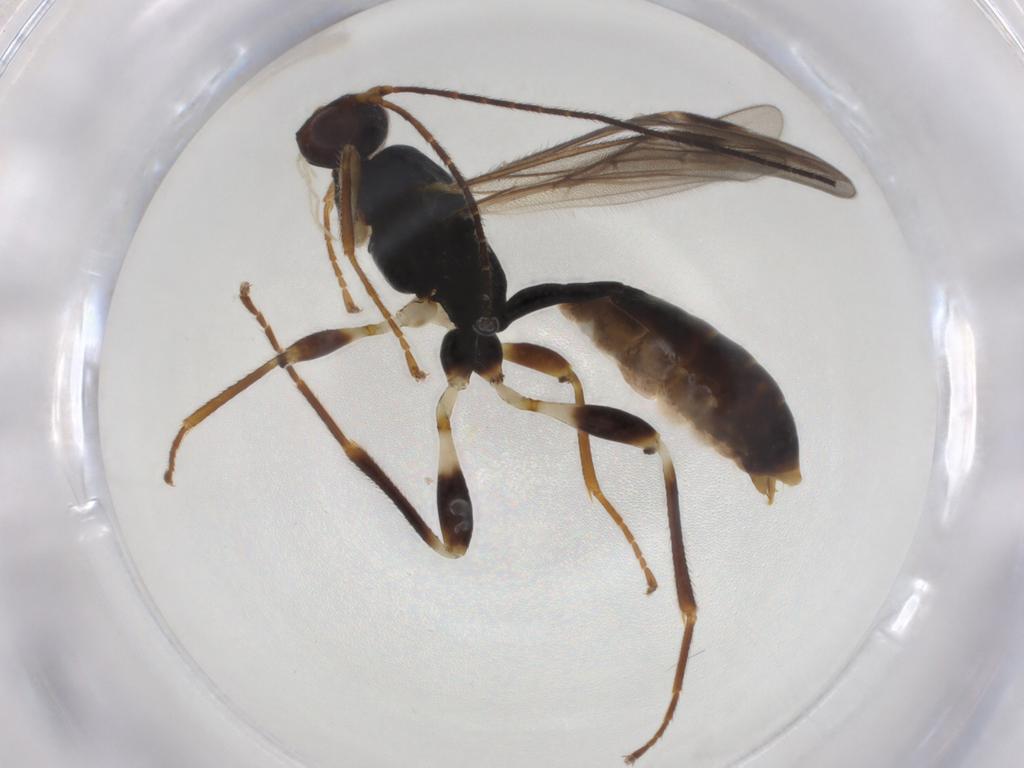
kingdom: Animalia
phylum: Arthropoda
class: Insecta
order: Hymenoptera
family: Braconidae
